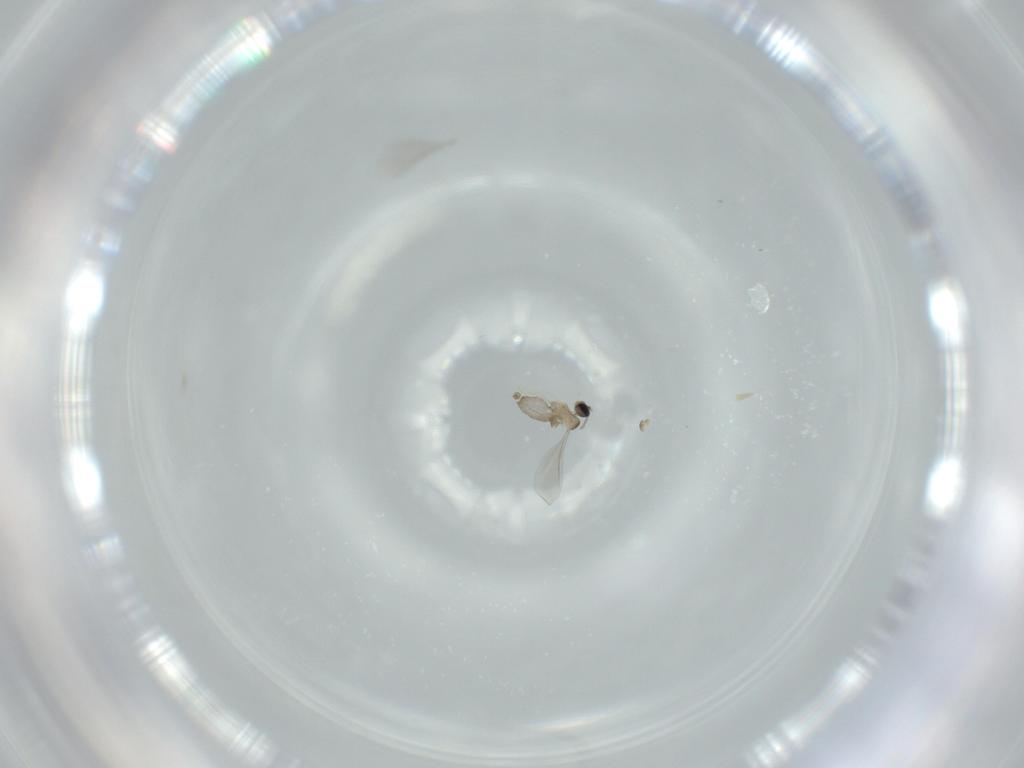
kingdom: Animalia
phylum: Arthropoda
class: Insecta
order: Diptera
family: Cecidomyiidae
